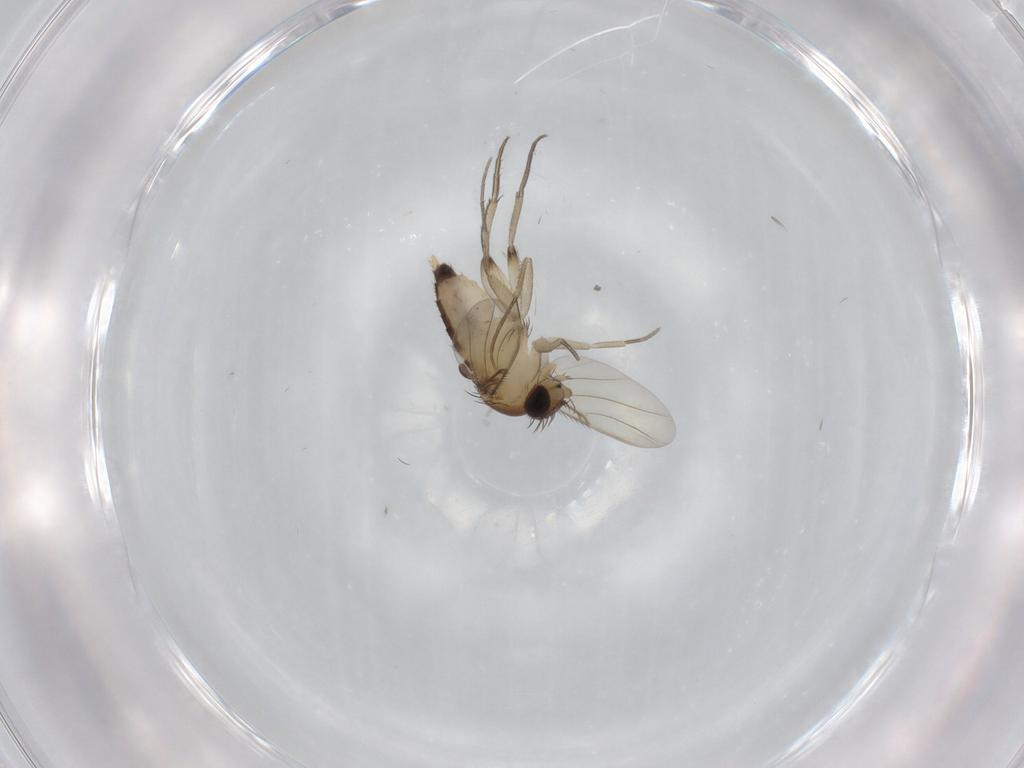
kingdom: Animalia
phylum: Arthropoda
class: Insecta
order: Diptera
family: Phoridae
